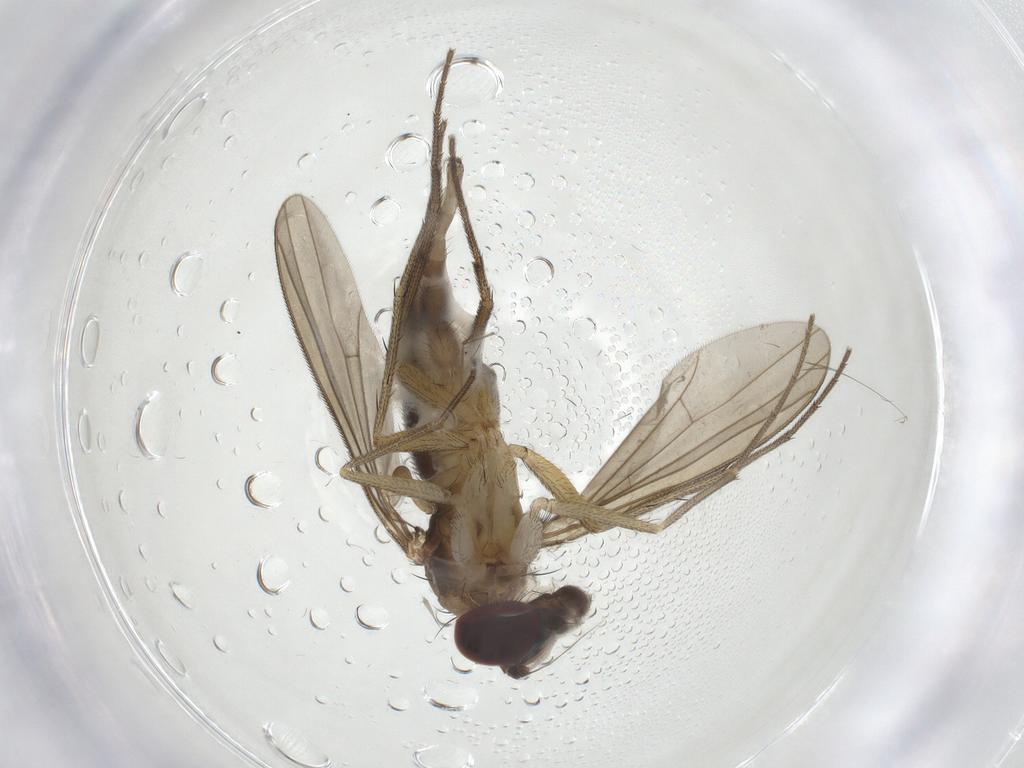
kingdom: Animalia
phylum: Arthropoda
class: Insecta
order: Diptera
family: Dolichopodidae
